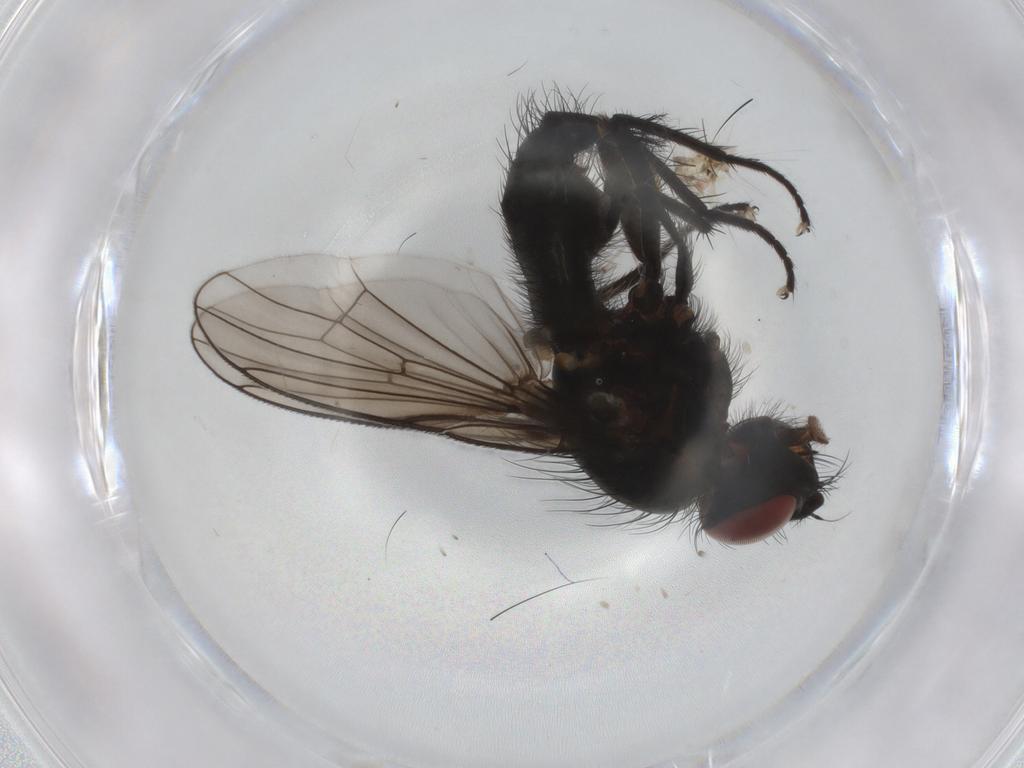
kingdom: Animalia
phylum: Arthropoda
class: Insecta
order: Diptera
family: Anthomyiidae
